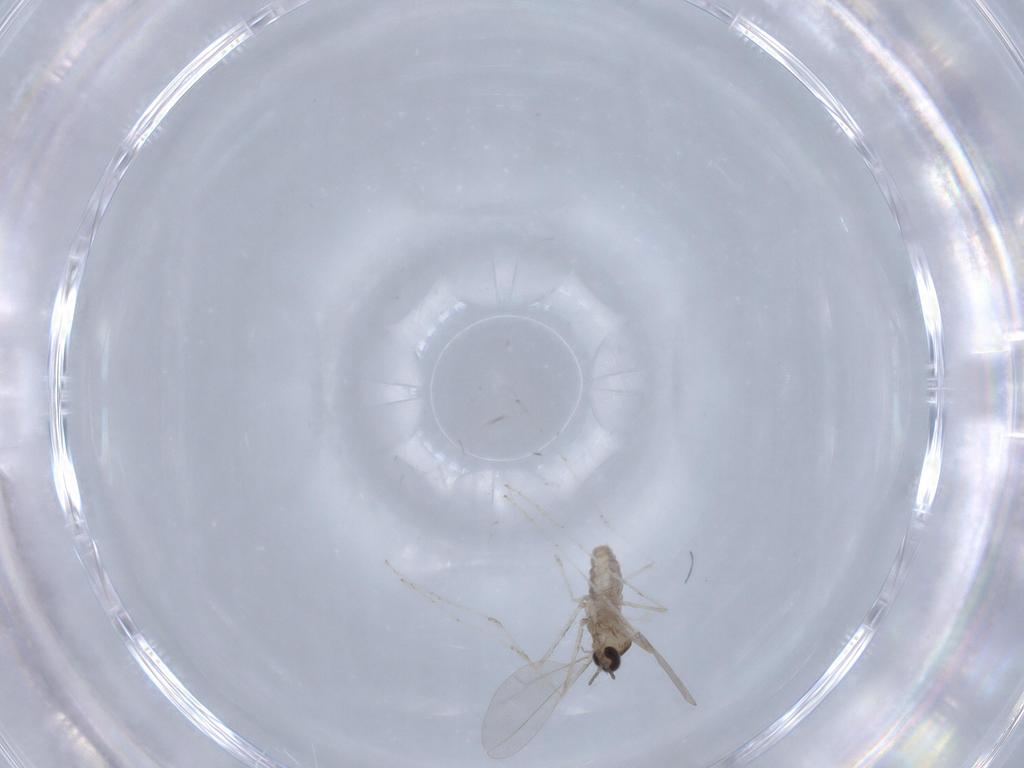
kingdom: Animalia
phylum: Arthropoda
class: Insecta
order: Diptera
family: Cecidomyiidae
